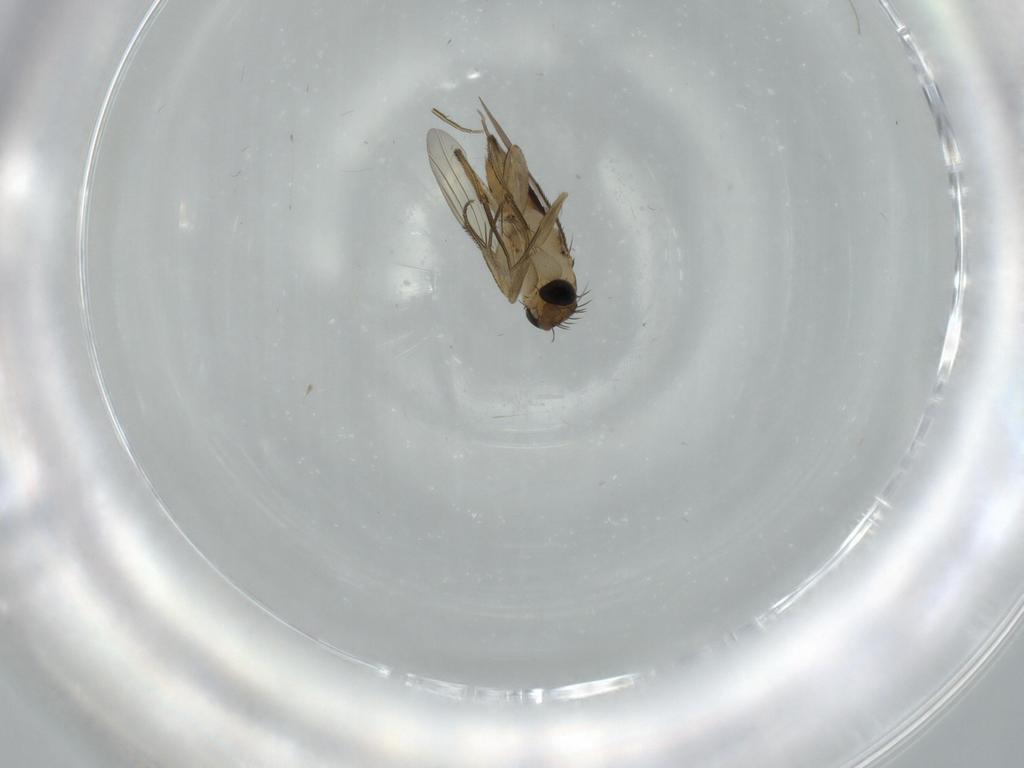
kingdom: Animalia
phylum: Arthropoda
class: Insecta
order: Diptera
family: Phoridae
